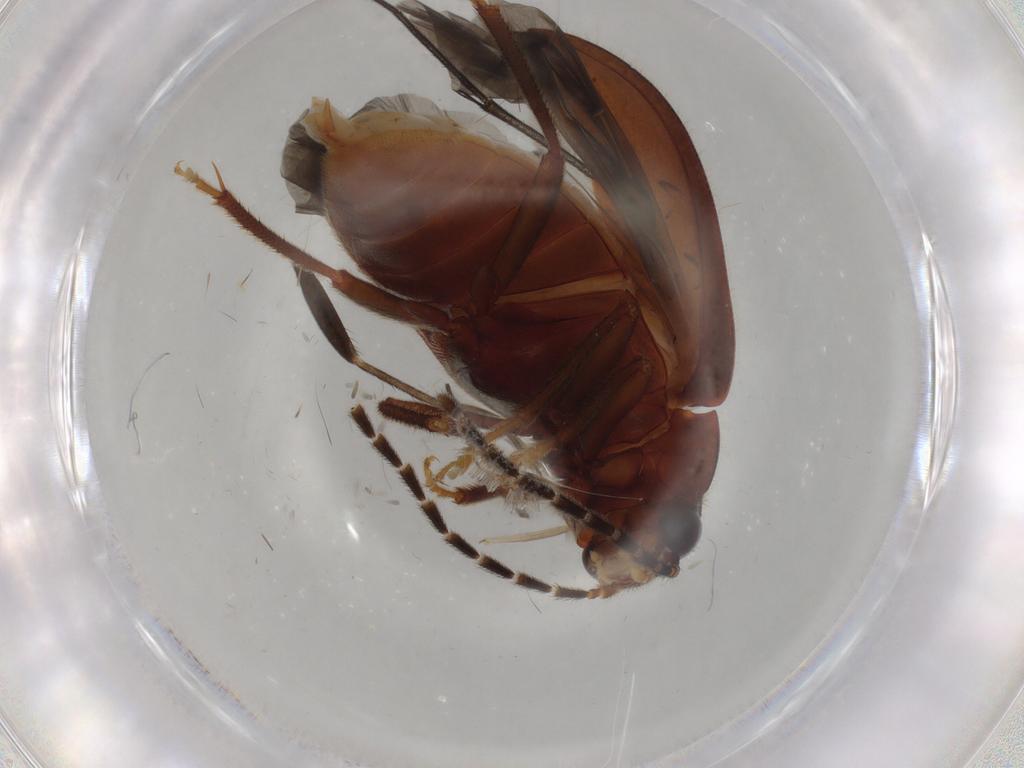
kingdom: Animalia
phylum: Arthropoda
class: Insecta
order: Coleoptera
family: Ptilodactylidae
